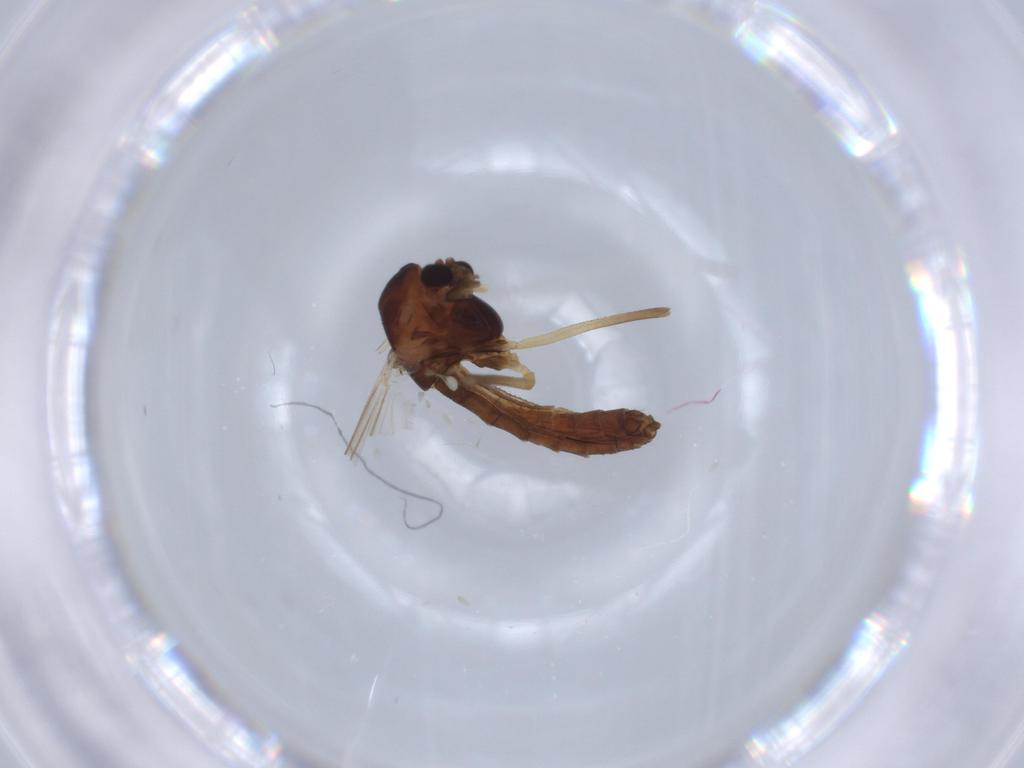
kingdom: Animalia
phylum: Arthropoda
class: Insecta
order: Diptera
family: Chironomidae
